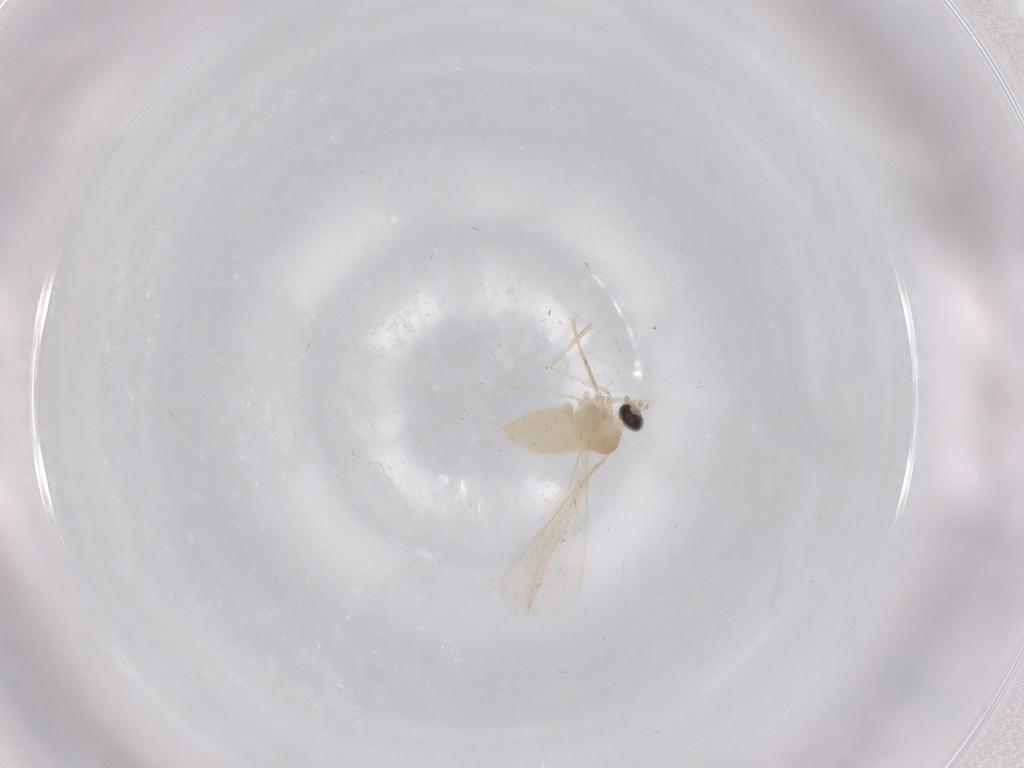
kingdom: Animalia
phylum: Arthropoda
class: Insecta
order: Diptera
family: Cecidomyiidae
